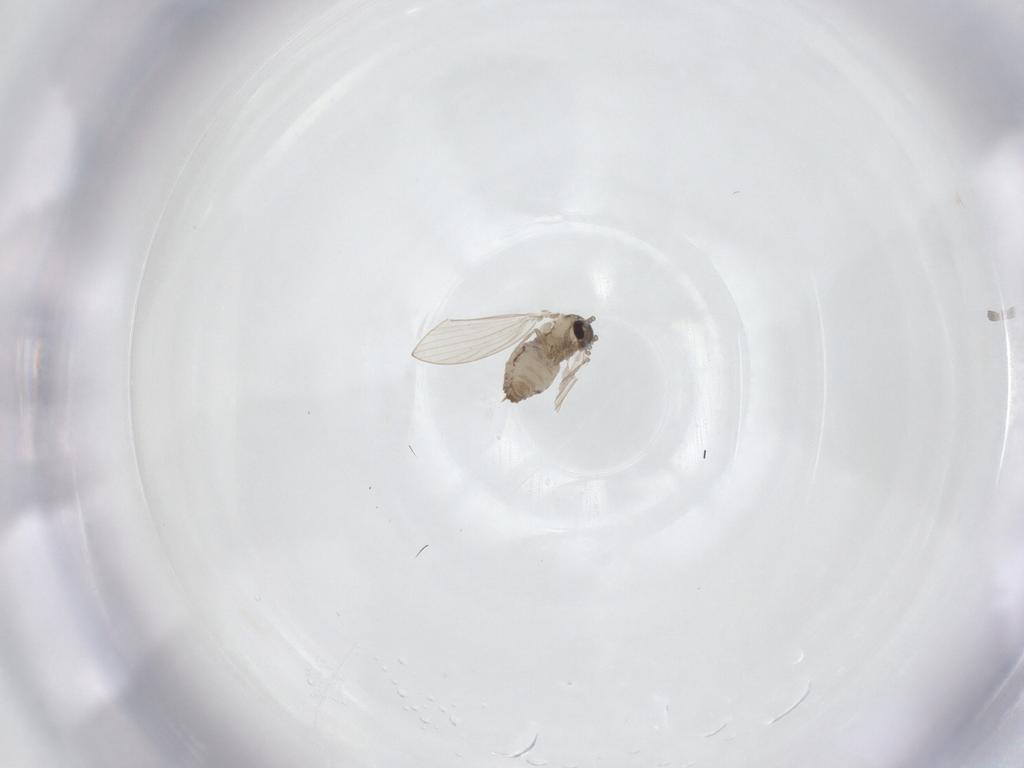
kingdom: Animalia
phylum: Arthropoda
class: Insecta
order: Diptera
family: Psychodidae
